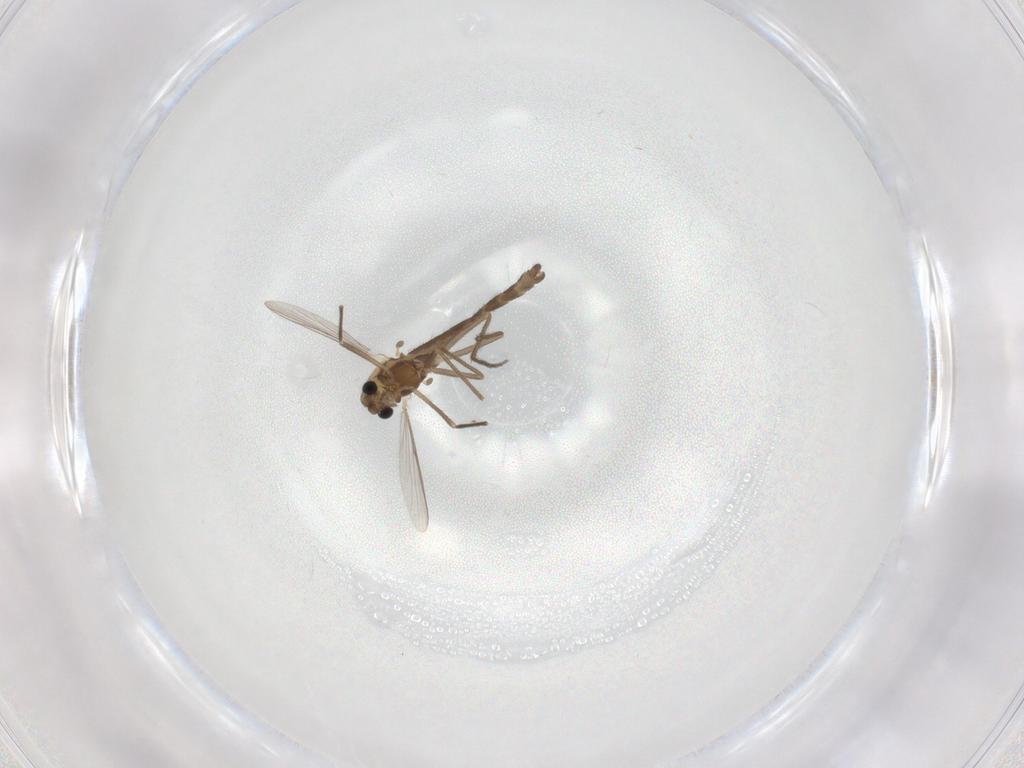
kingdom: Animalia
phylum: Arthropoda
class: Insecta
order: Diptera
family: Chironomidae
